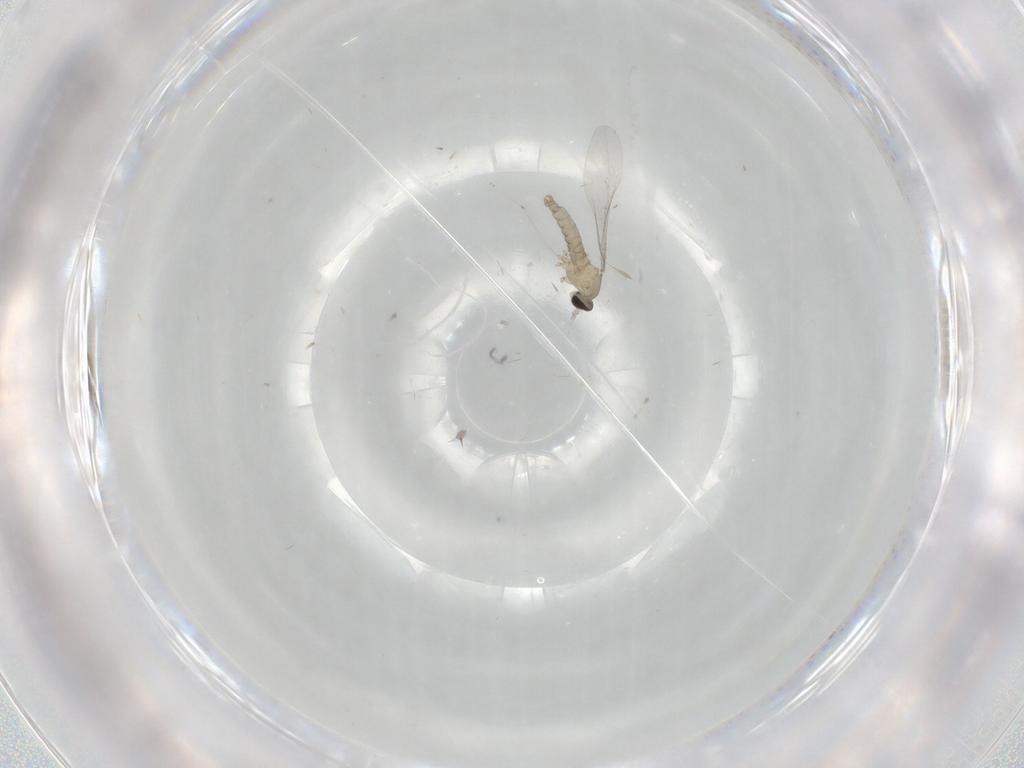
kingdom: Animalia
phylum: Arthropoda
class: Insecta
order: Diptera
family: Cecidomyiidae
